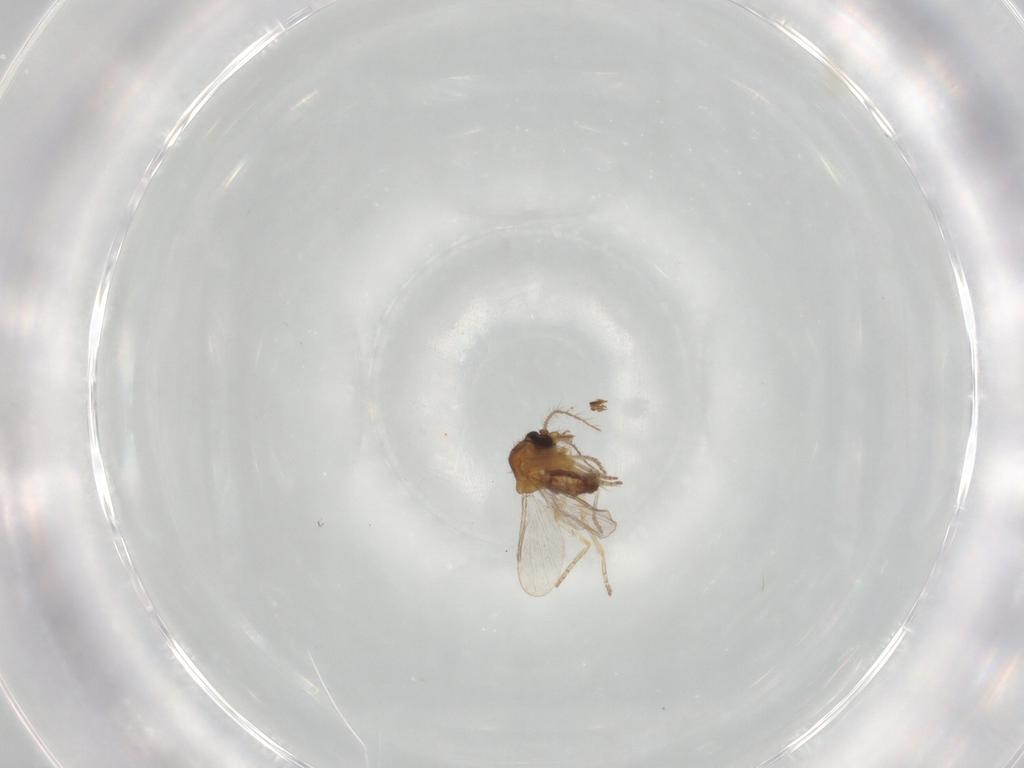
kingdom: Animalia
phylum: Arthropoda
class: Insecta
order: Diptera
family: Ceratopogonidae
